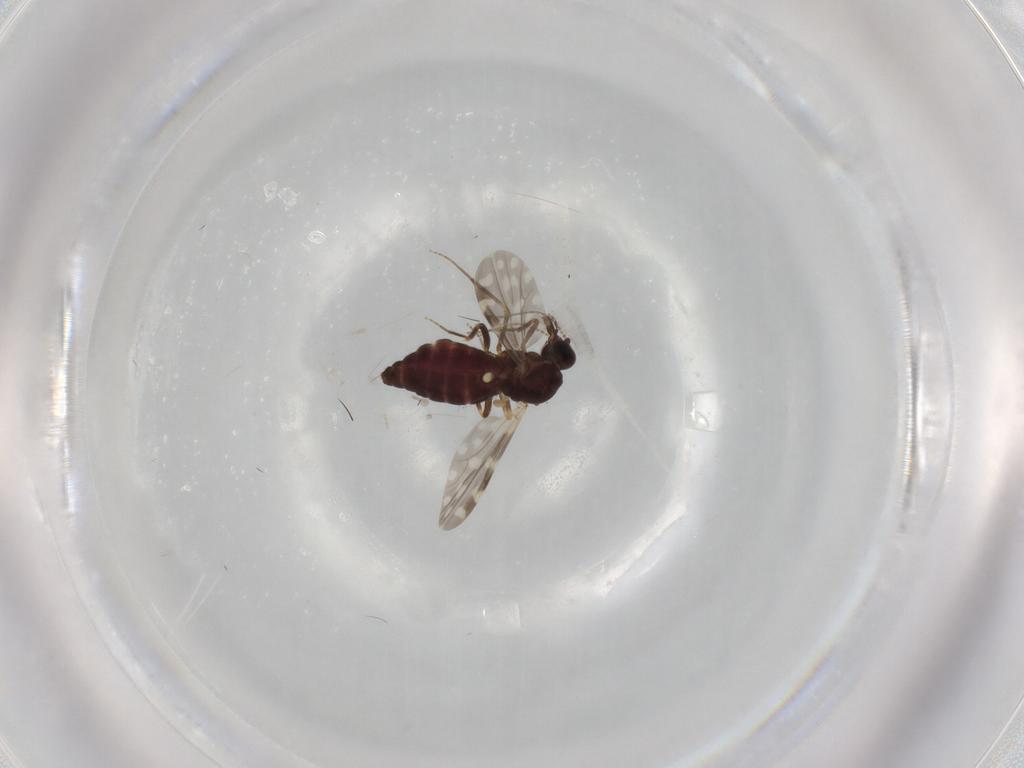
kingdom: Animalia
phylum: Arthropoda
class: Insecta
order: Diptera
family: Ceratopogonidae
